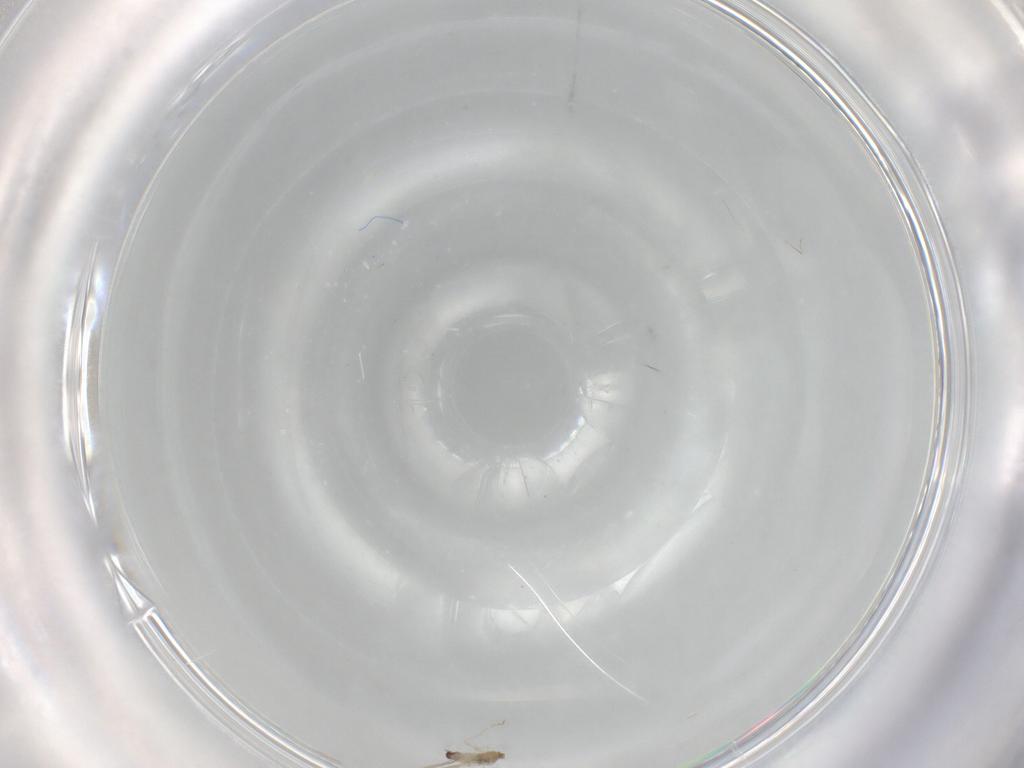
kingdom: Animalia
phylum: Arthropoda
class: Insecta
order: Diptera
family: Cecidomyiidae
